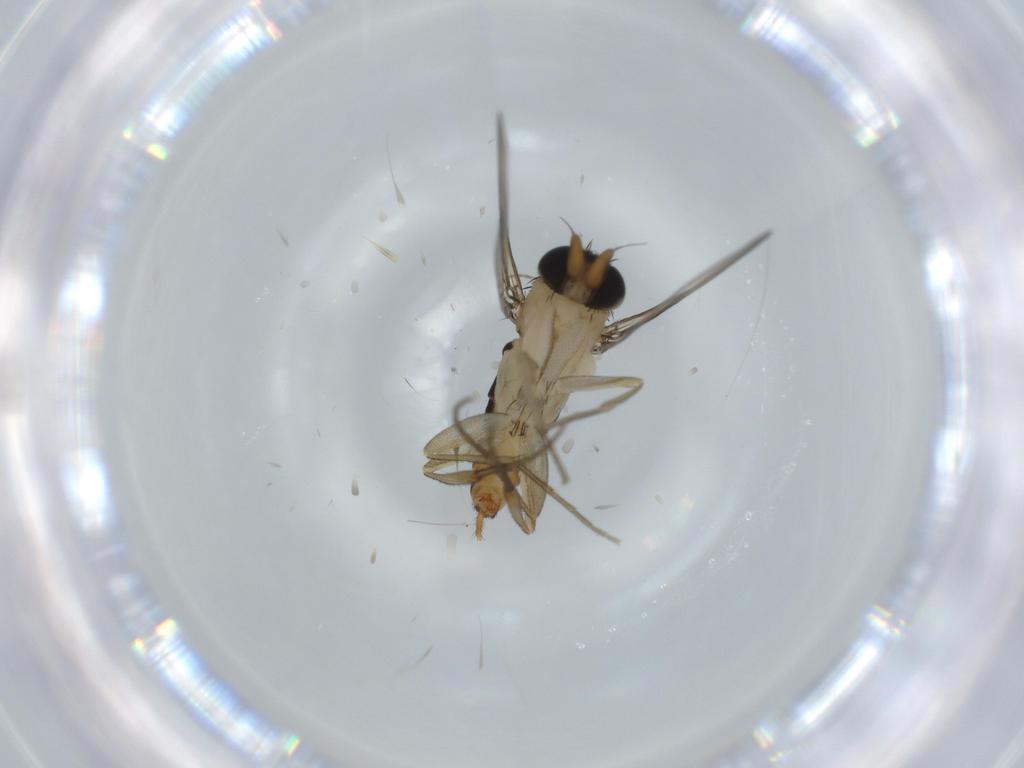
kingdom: Animalia
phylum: Arthropoda
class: Insecta
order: Diptera
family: Phoridae
